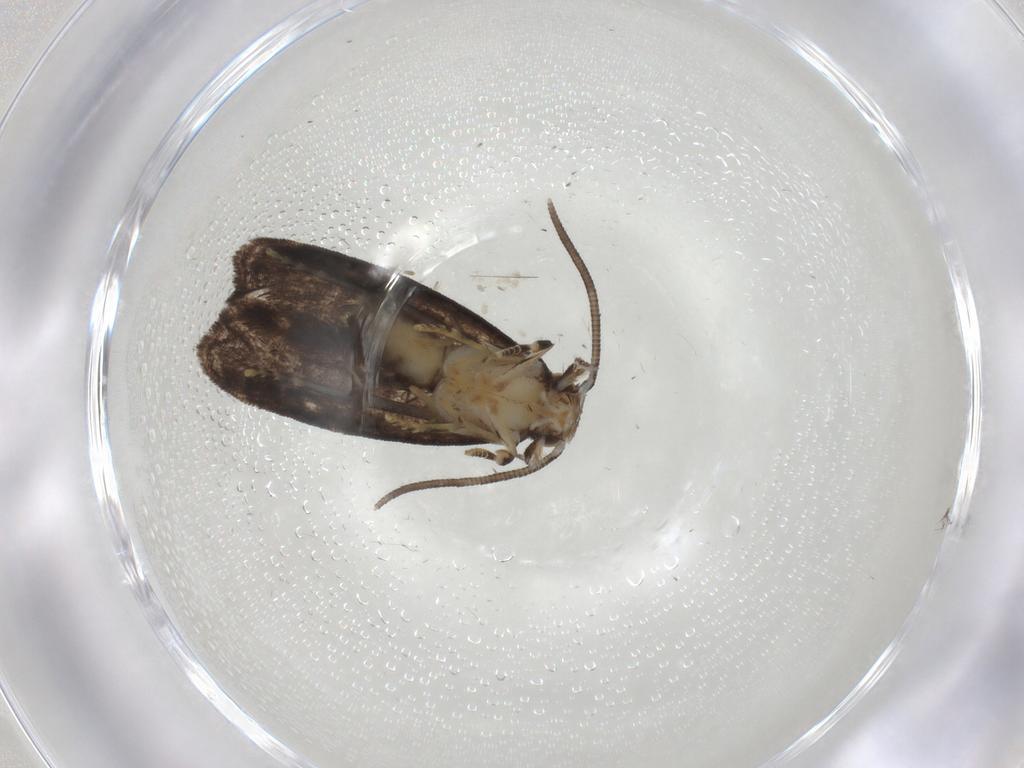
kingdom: Animalia
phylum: Arthropoda
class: Insecta
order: Lepidoptera
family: Dryadaulidae
